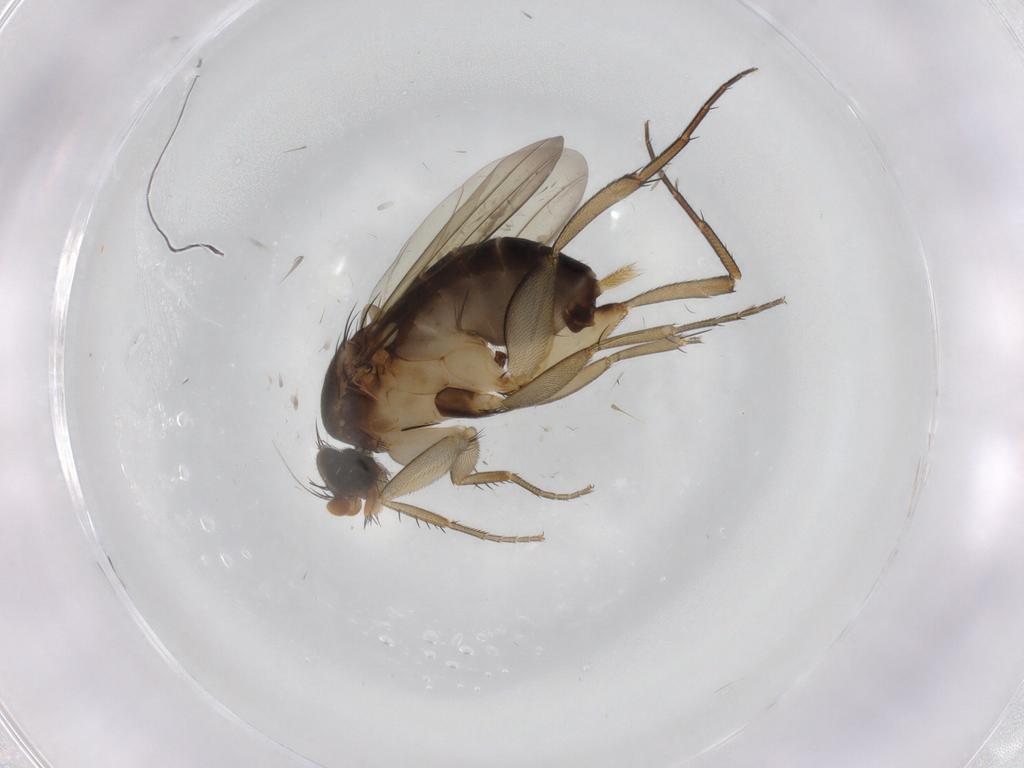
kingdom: Animalia
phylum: Arthropoda
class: Insecta
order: Diptera
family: Phoridae
